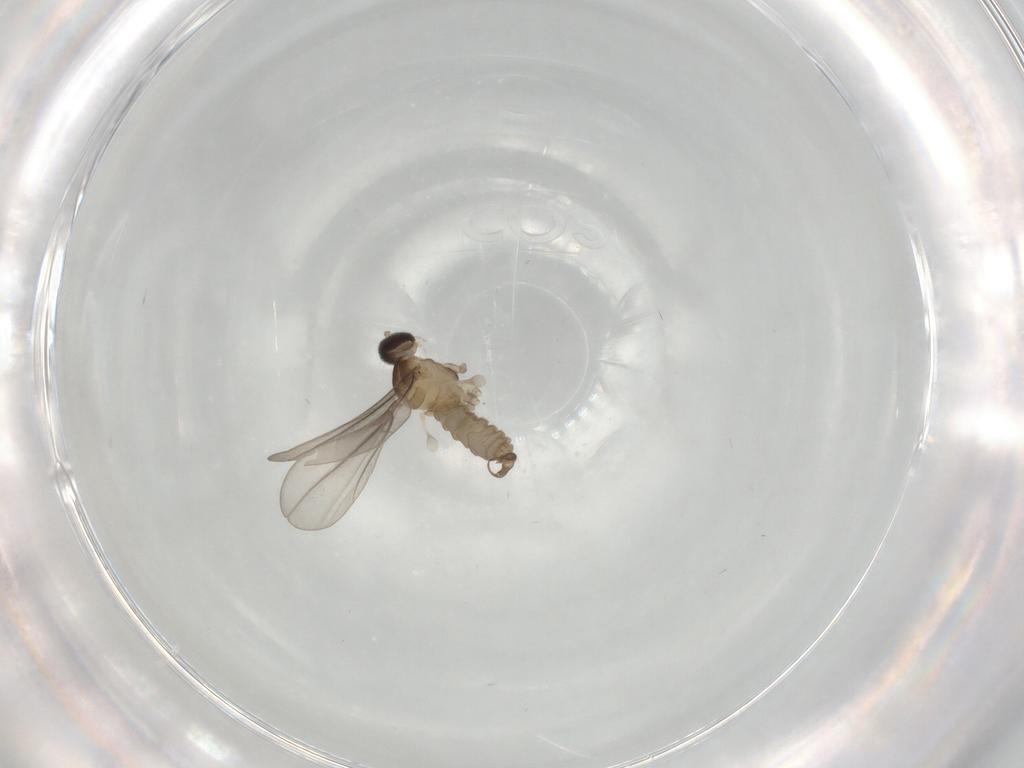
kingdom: Animalia
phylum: Arthropoda
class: Insecta
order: Diptera
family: Cecidomyiidae
